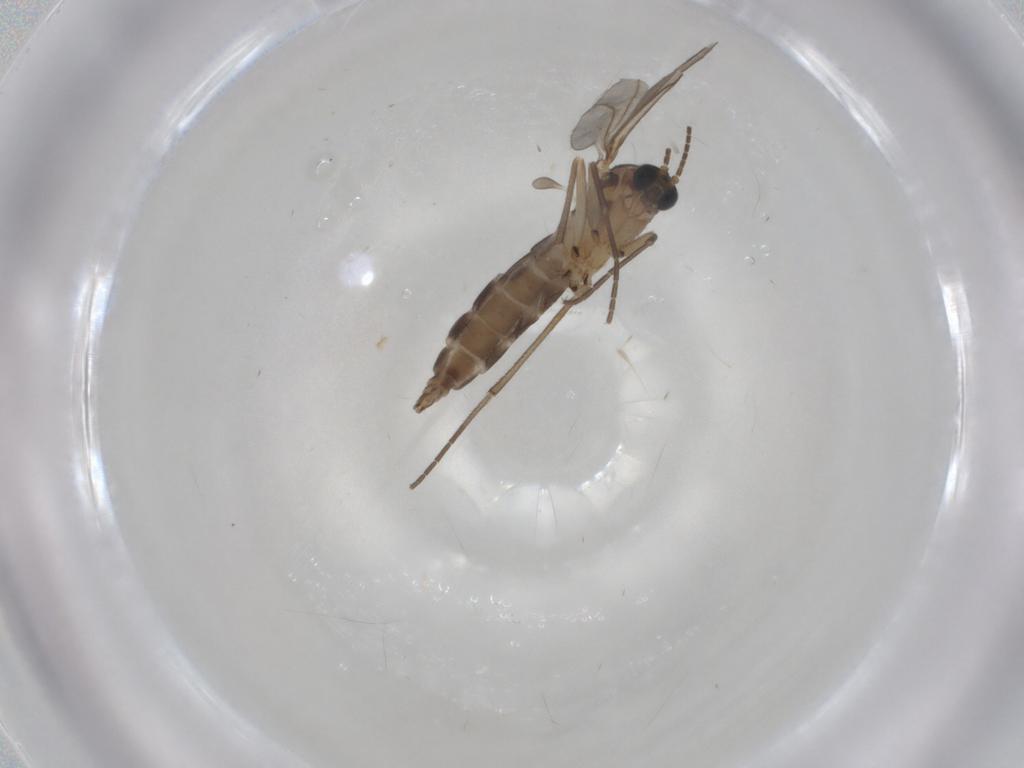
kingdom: Animalia
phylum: Arthropoda
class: Insecta
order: Diptera
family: Sciaridae
